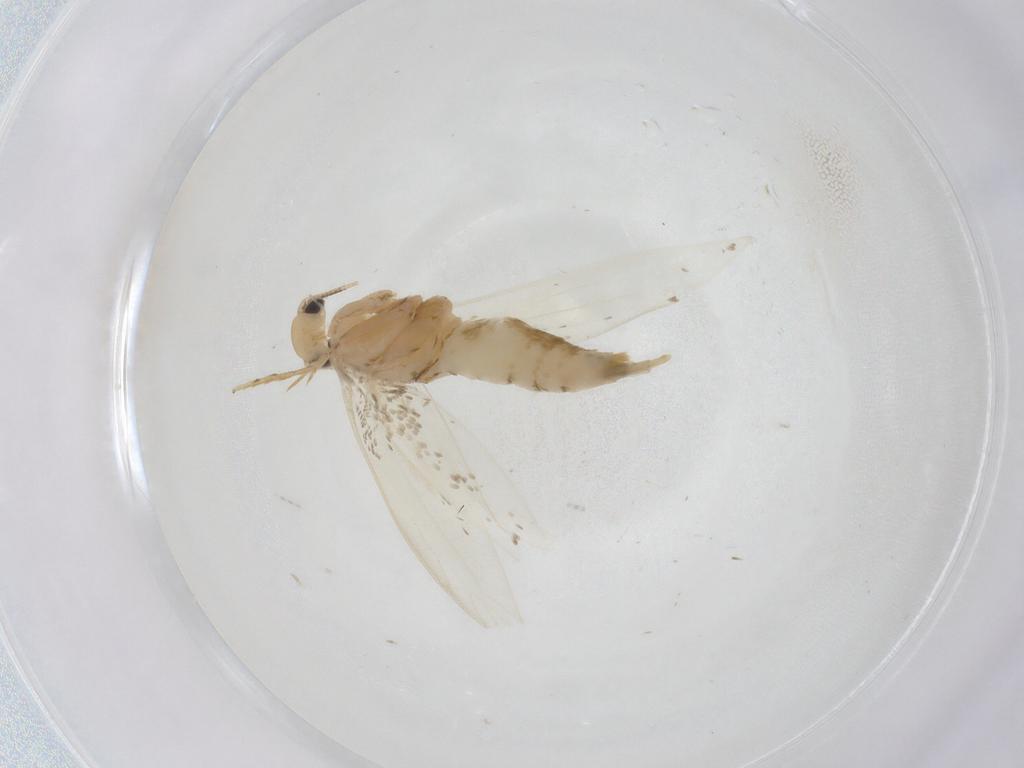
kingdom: Animalia
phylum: Arthropoda
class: Insecta
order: Lepidoptera
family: Tineidae
